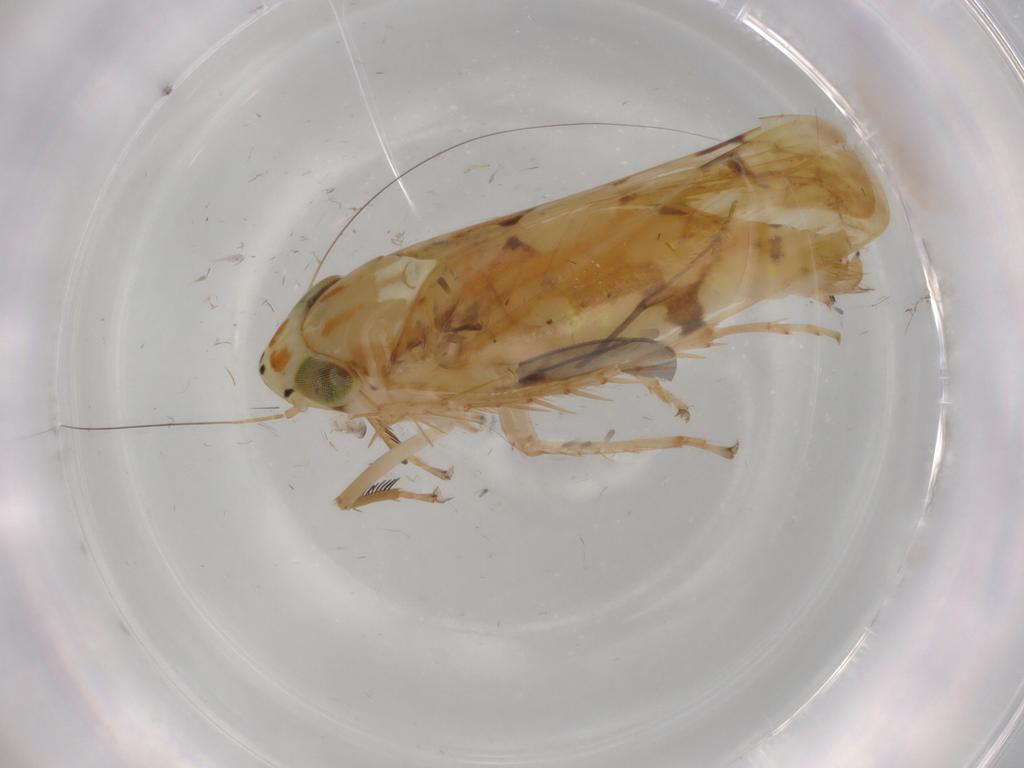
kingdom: Animalia
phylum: Arthropoda
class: Insecta
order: Hemiptera
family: Cicadellidae
